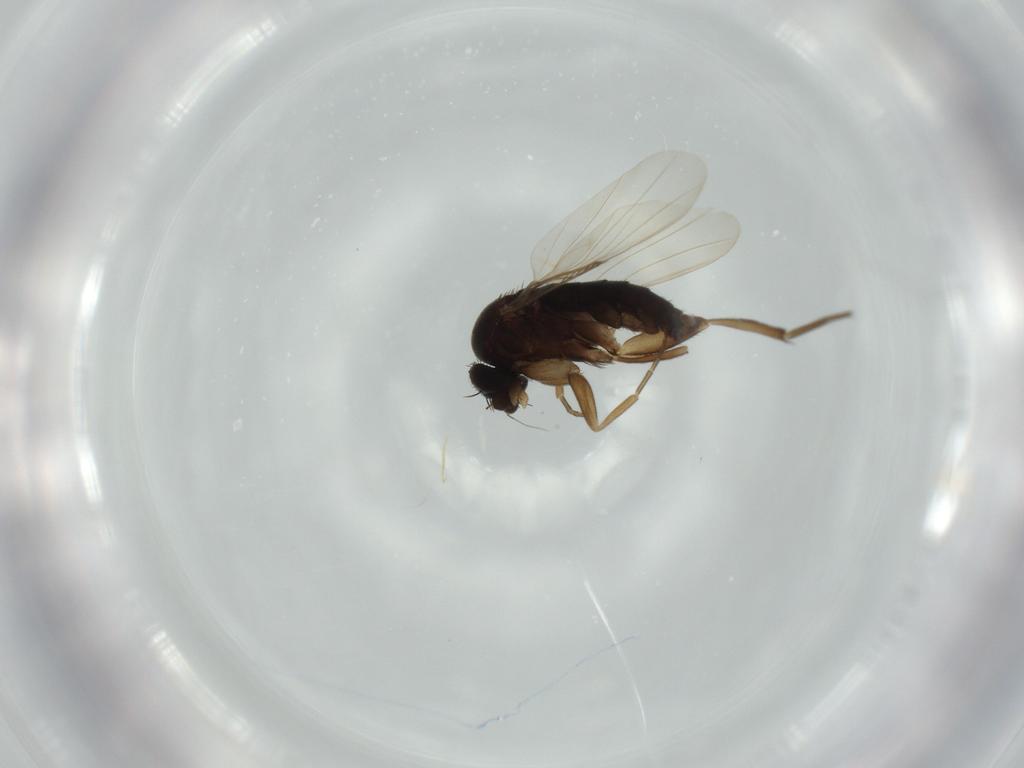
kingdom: Animalia
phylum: Arthropoda
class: Insecta
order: Diptera
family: Phoridae
